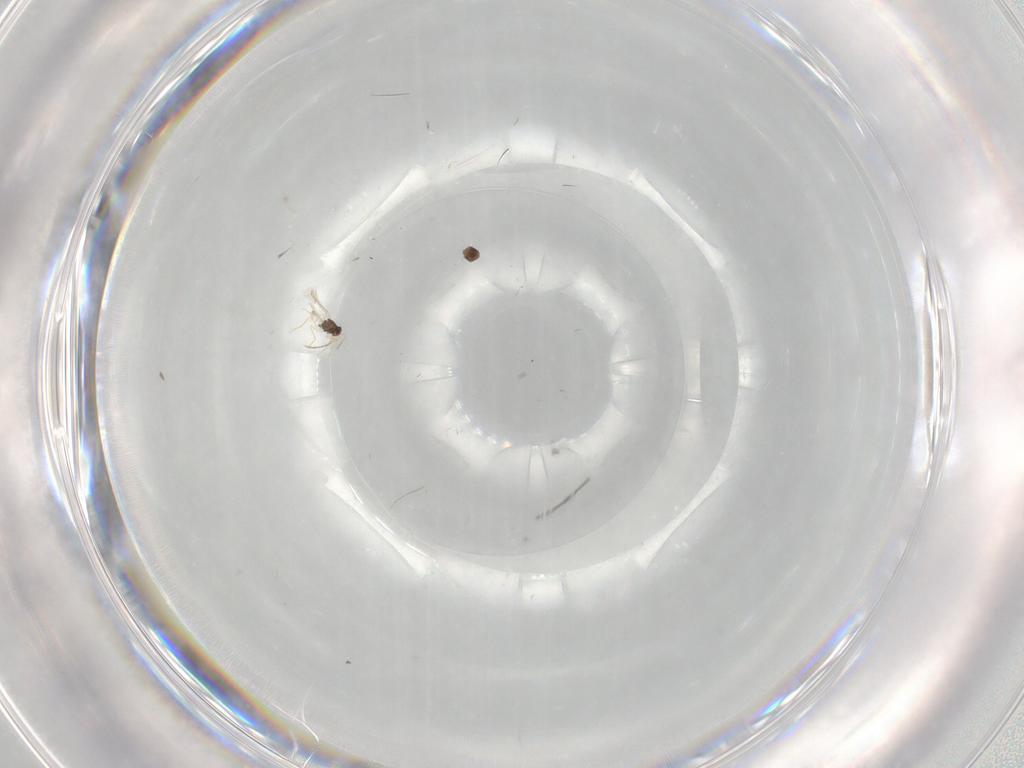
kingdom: Animalia
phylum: Arthropoda
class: Insecta
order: Hymenoptera
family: Mymaridae
